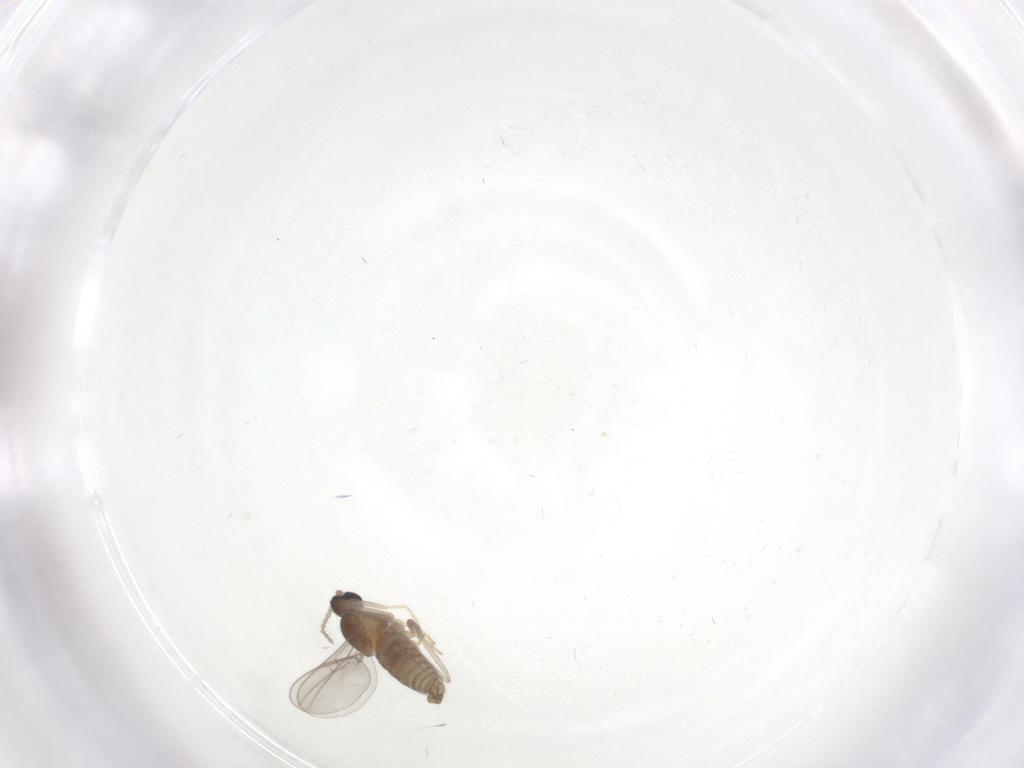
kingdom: Animalia
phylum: Arthropoda
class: Insecta
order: Diptera
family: Cecidomyiidae
